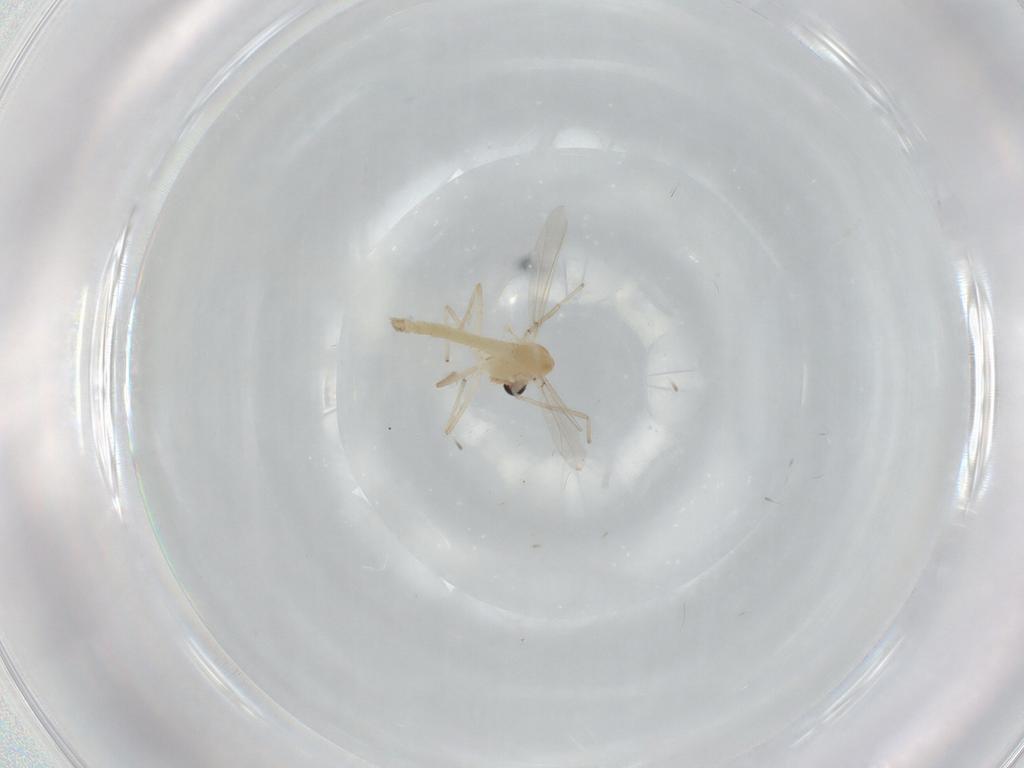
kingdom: Animalia
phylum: Arthropoda
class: Insecta
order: Diptera
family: Chironomidae
